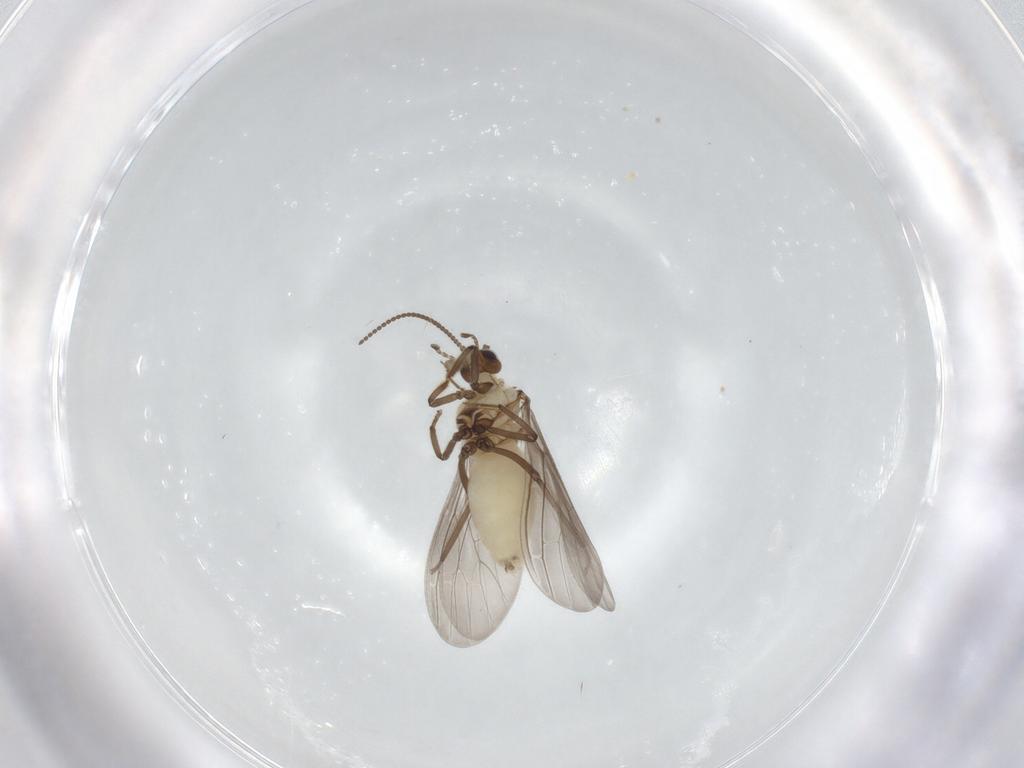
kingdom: Animalia
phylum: Arthropoda
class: Insecta
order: Neuroptera
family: Coniopterygidae
